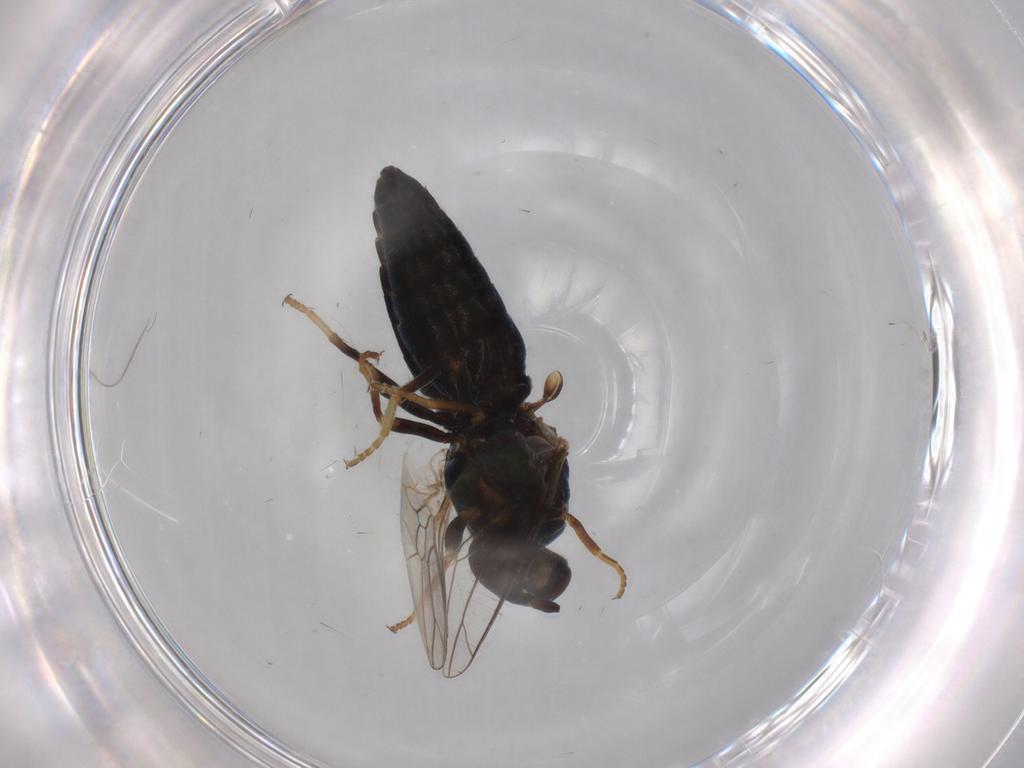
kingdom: Animalia
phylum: Arthropoda
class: Insecta
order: Diptera
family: Scenopinidae
